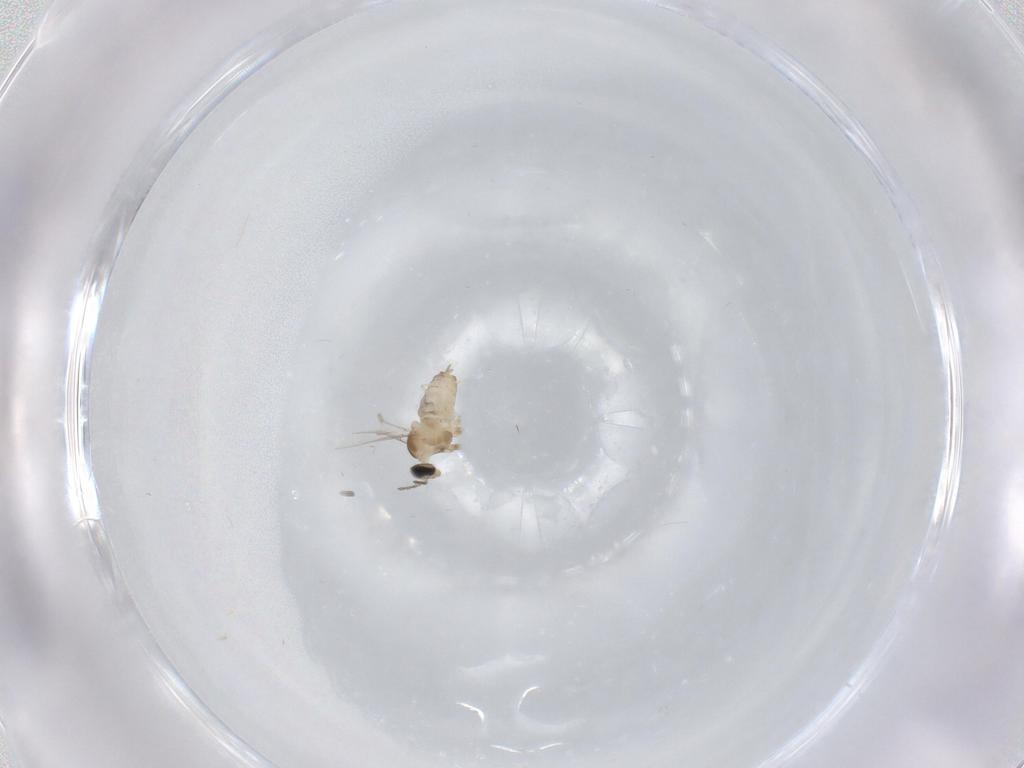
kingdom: Animalia
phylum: Arthropoda
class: Insecta
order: Diptera
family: Cecidomyiidae
